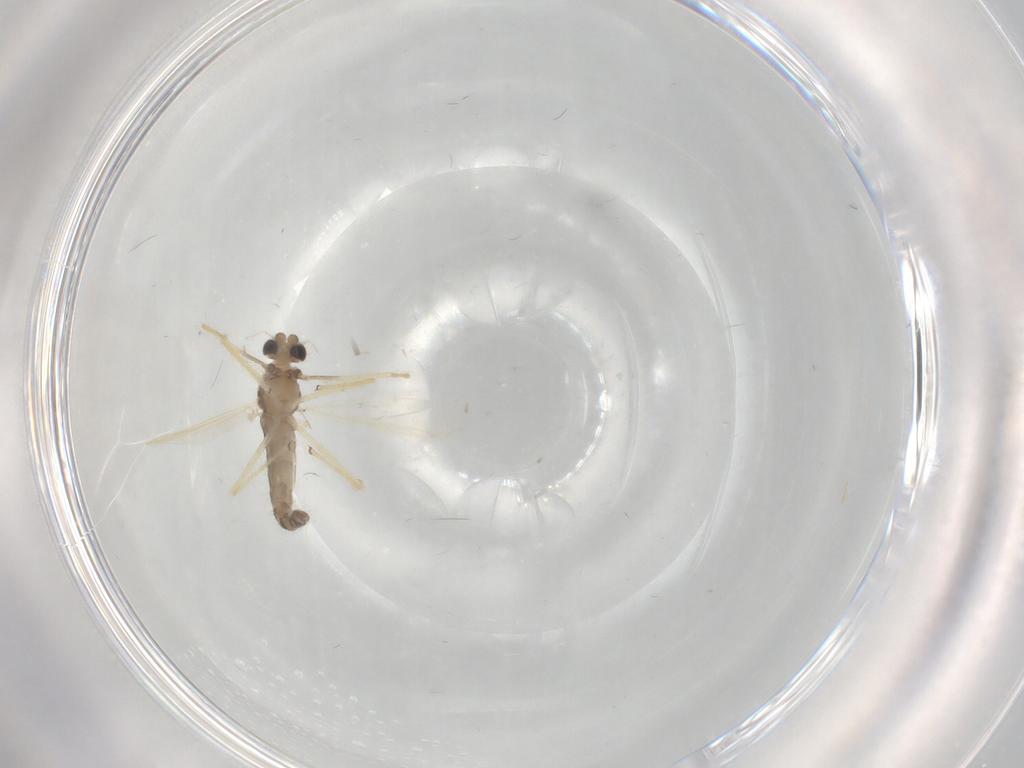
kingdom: Animalia
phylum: Arthropoda
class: Insecta
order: Diptera
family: Chironomidae
